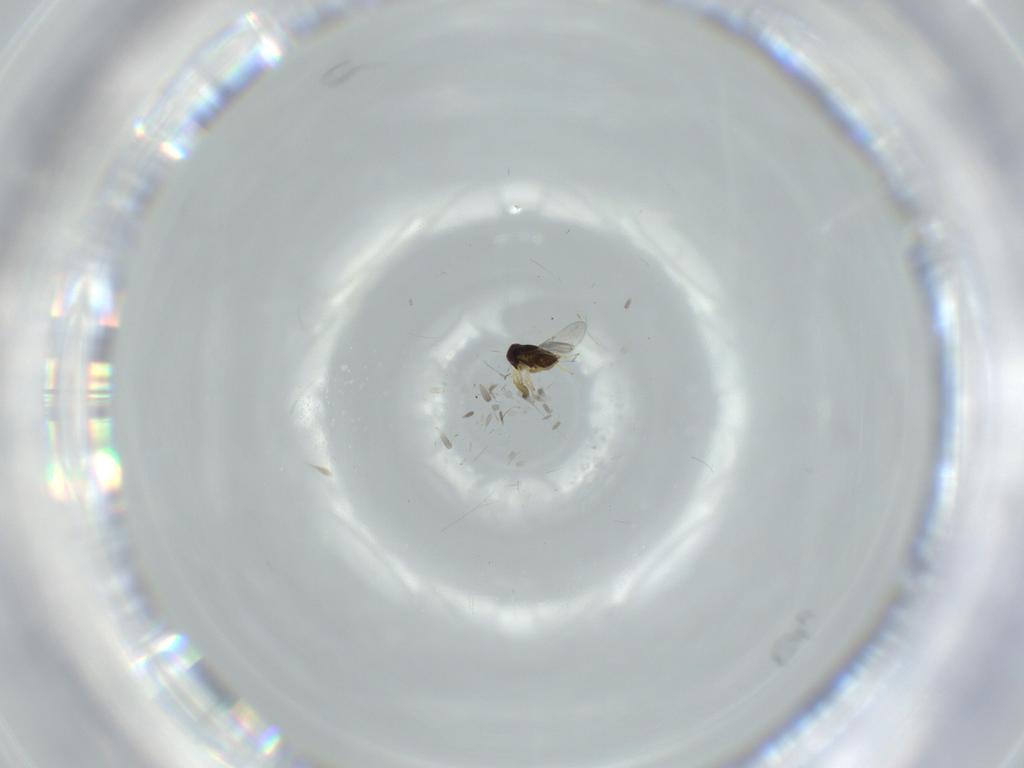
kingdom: Animalia
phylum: Arthropoda
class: Insecta
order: Hymenoptera
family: Encyrtidae
